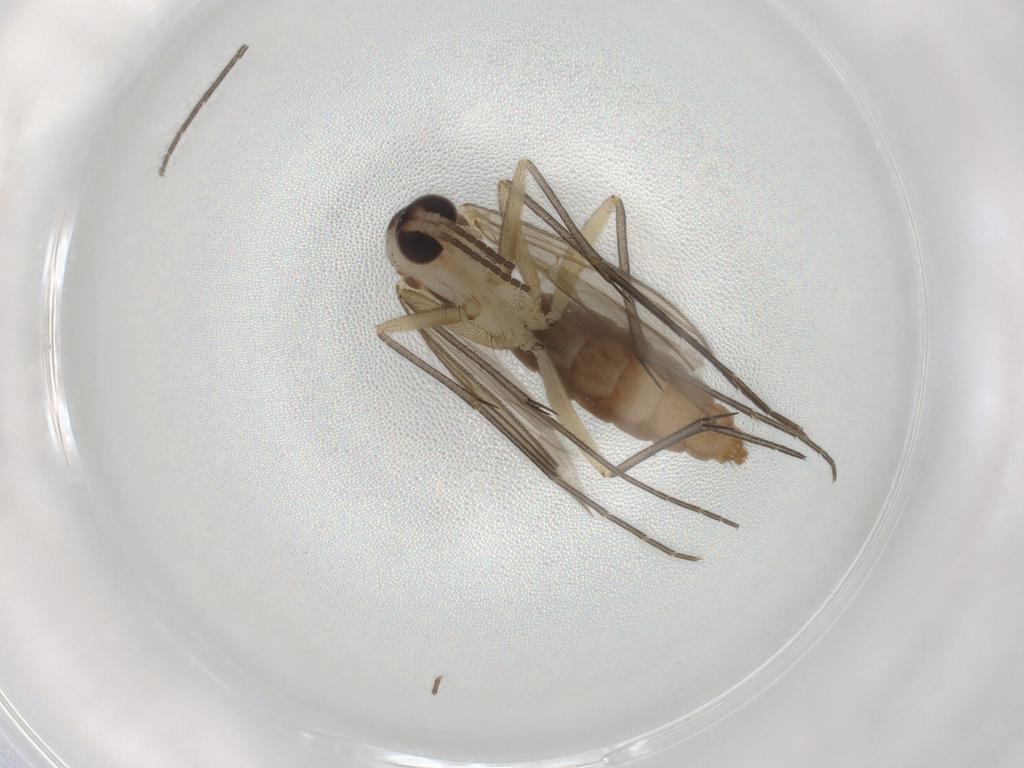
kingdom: Animalia
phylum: Arthropoda
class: Insecta
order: Diptera
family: Mycetophilidae
